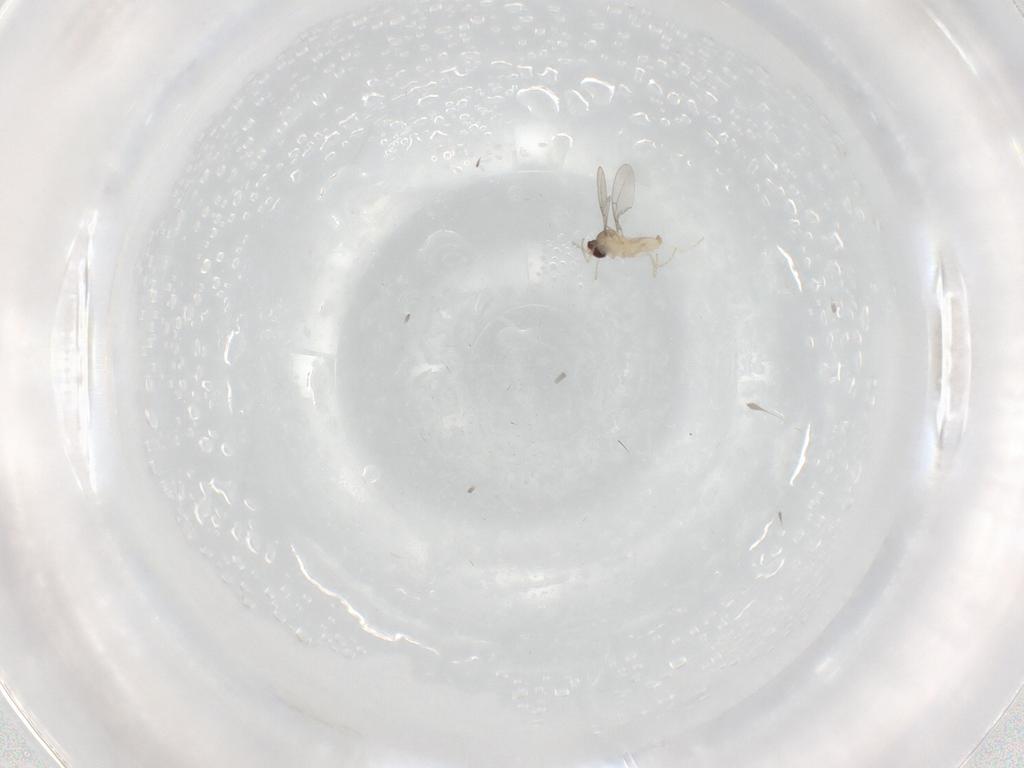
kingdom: Animalia
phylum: Arthropoda
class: Insecta
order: Diptera
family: Cecidomyiidae
